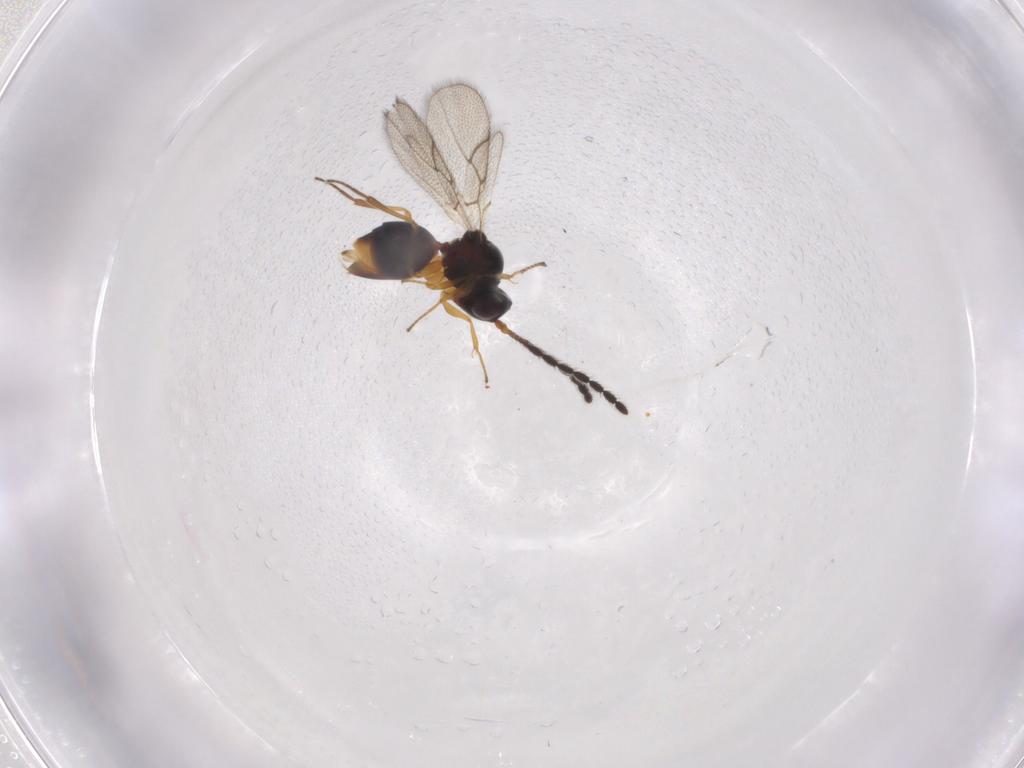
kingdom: Animalia
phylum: Arthropoda
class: Insecta
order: Hymenoptera
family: Figitidae
